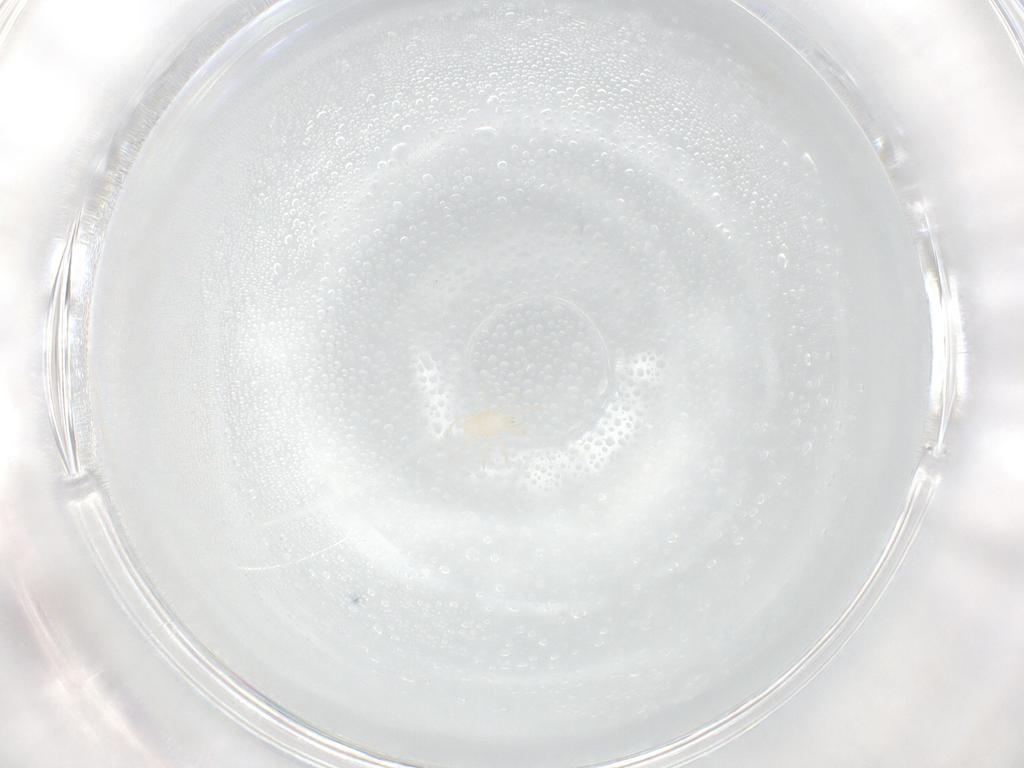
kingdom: Animalia
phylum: Arthropoda
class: Arachnida
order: Mesostigmata
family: Phytoseiidae
